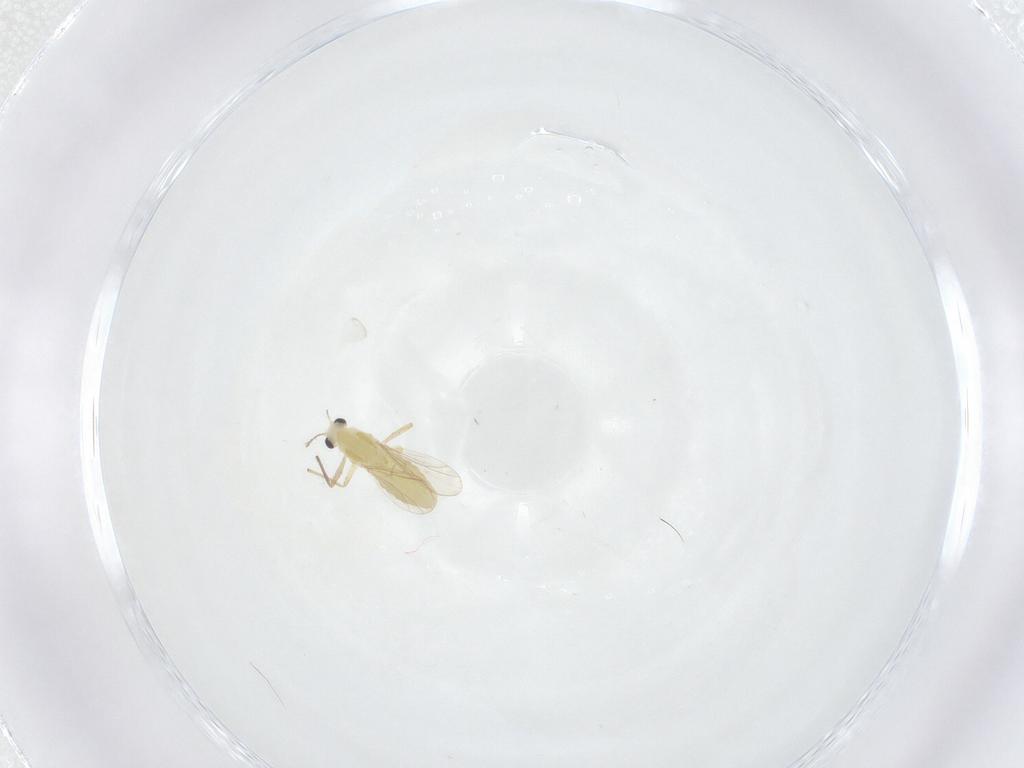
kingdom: Animalia
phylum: Arthropoda
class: Insecta
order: Diptera
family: Chironomidae
